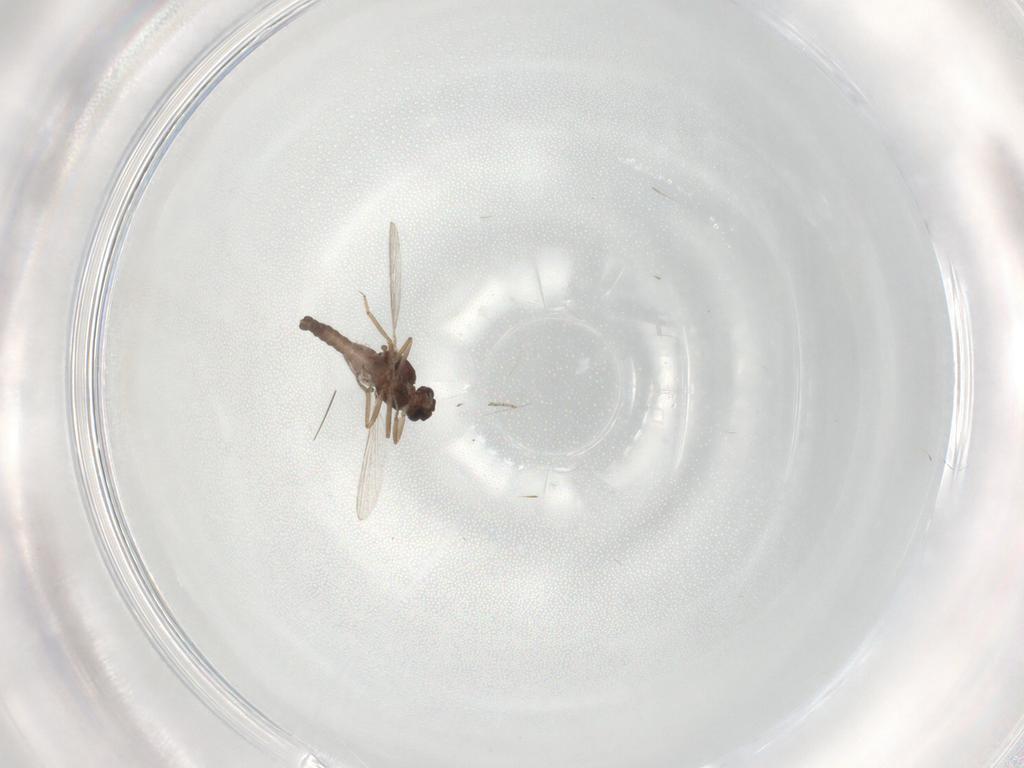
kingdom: Animalia
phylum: Arthropoda
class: Insecta
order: Diptera
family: Ceratopogonidae
